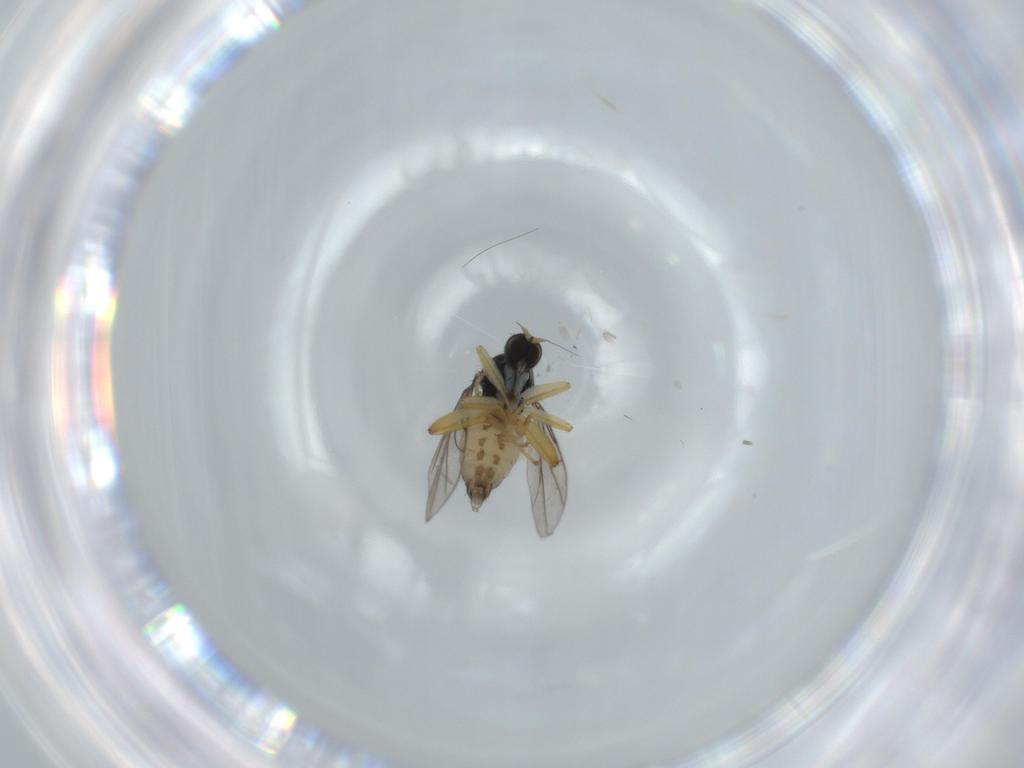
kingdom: Animalia
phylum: Arthropoda
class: Insecta
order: Diptera
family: Hybotidae
